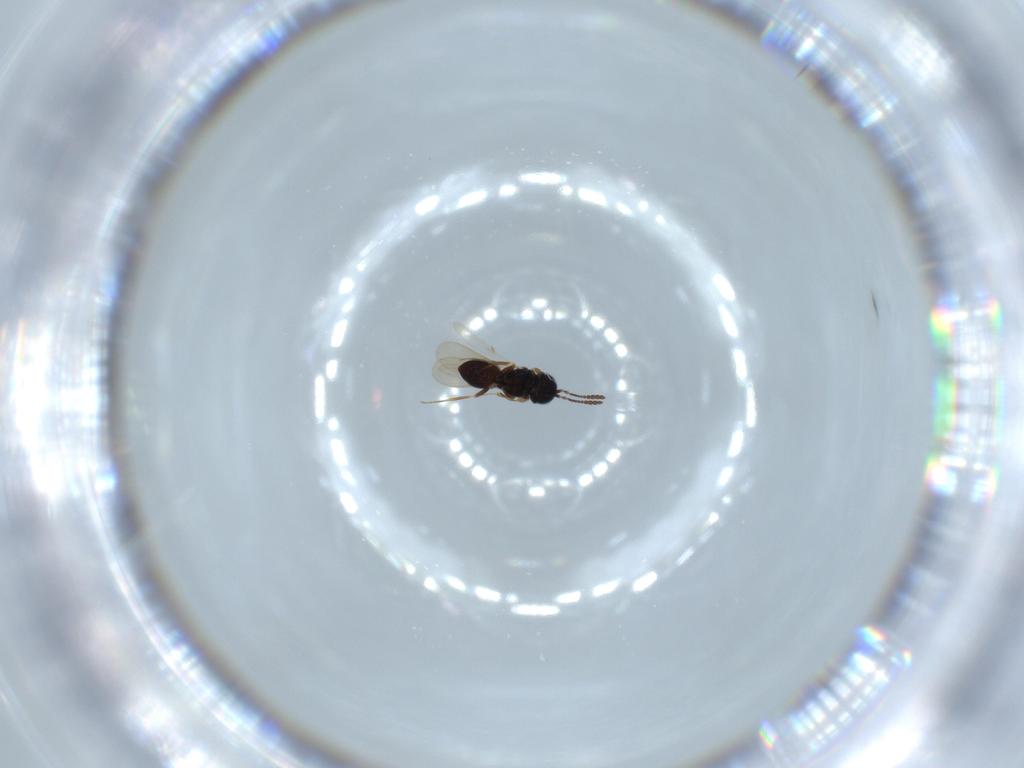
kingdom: Animalia
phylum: Arthropoda
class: Insecta
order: Hymenoptera
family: Scelionidae
